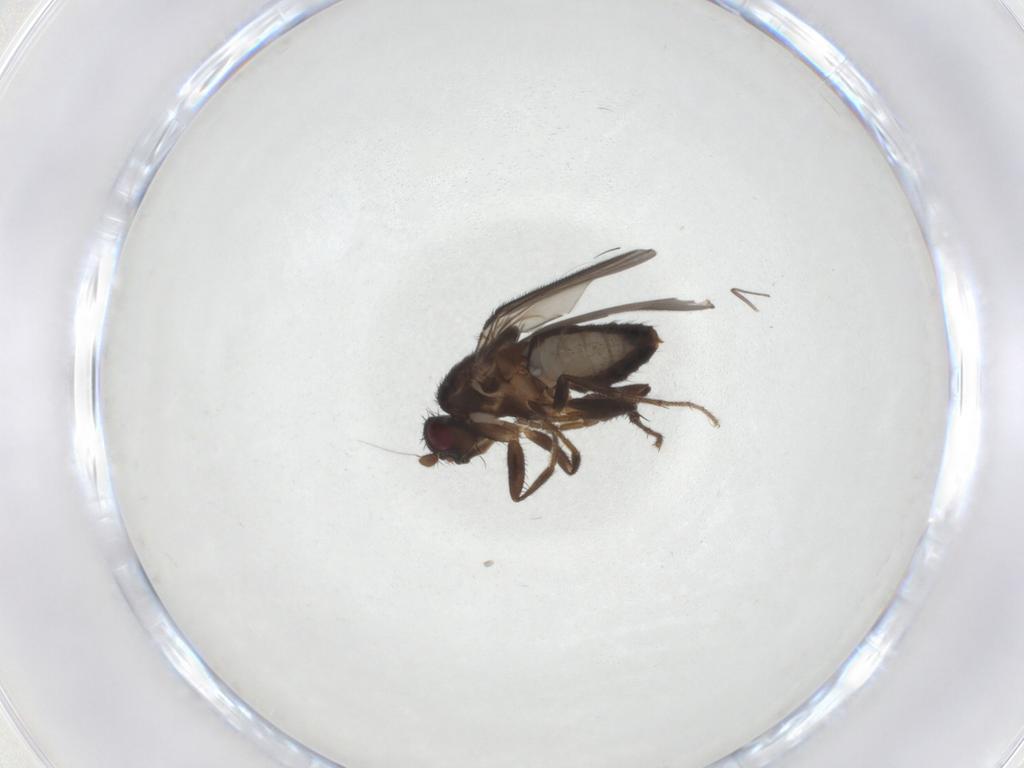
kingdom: Animalia
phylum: Arthropoda
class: Insecta
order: Diptera
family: Sphaeroceridae
